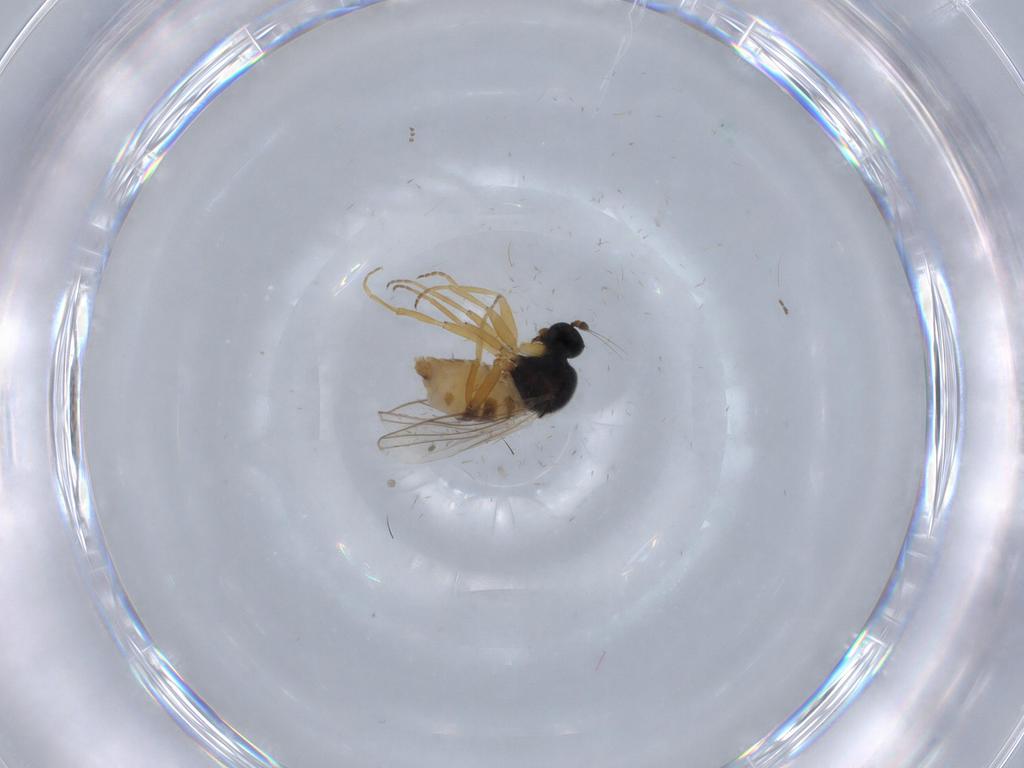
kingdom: Animalia
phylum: Arthropoda
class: Insecta
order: Diptera
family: Hybotidae
